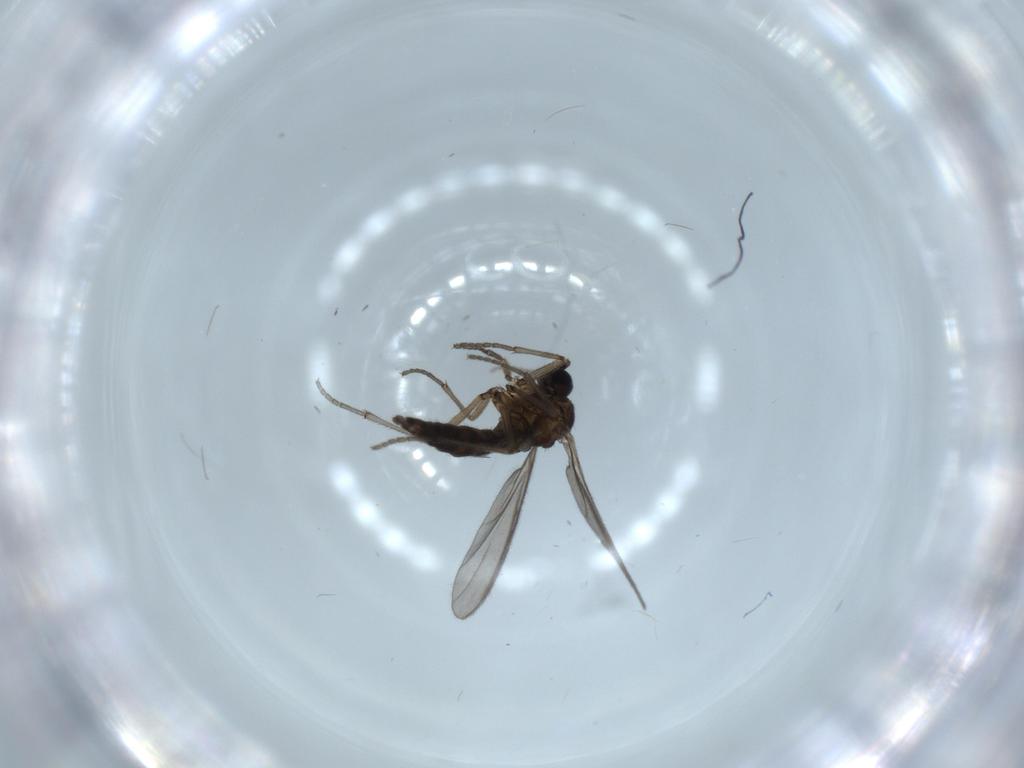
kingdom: Animalia
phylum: Arthropoda
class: Insecta
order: Diptera
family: Sciaridae
